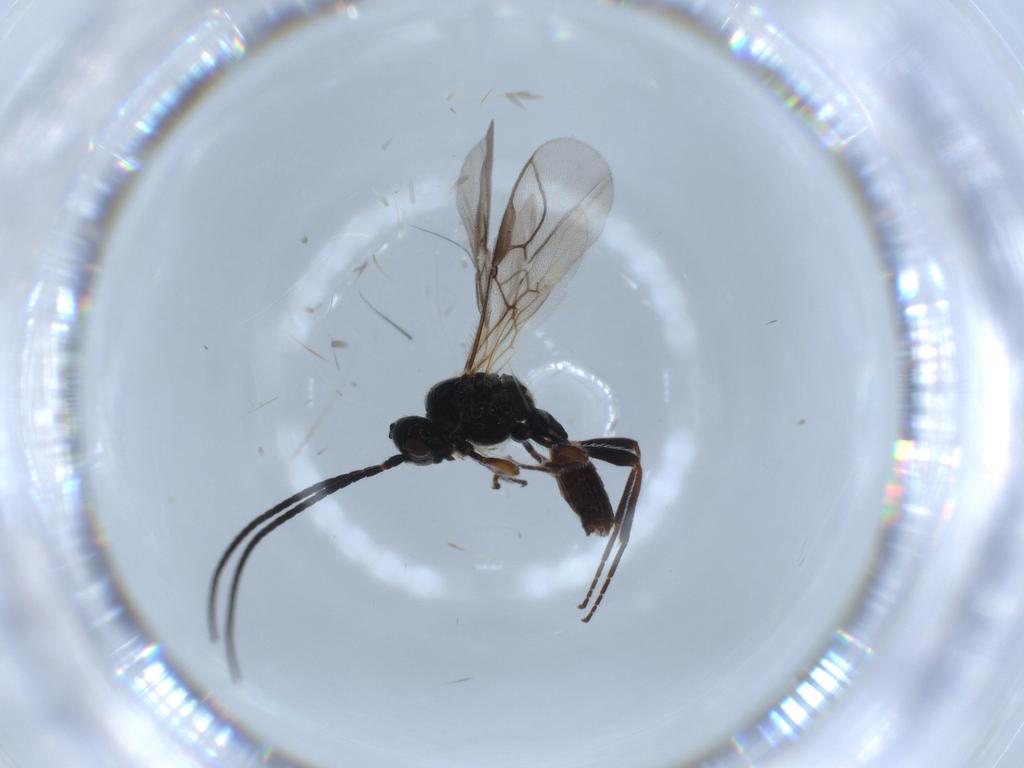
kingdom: Animalia
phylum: Arthropoda
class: Insecta
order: Hymenoptera
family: Braconidae
